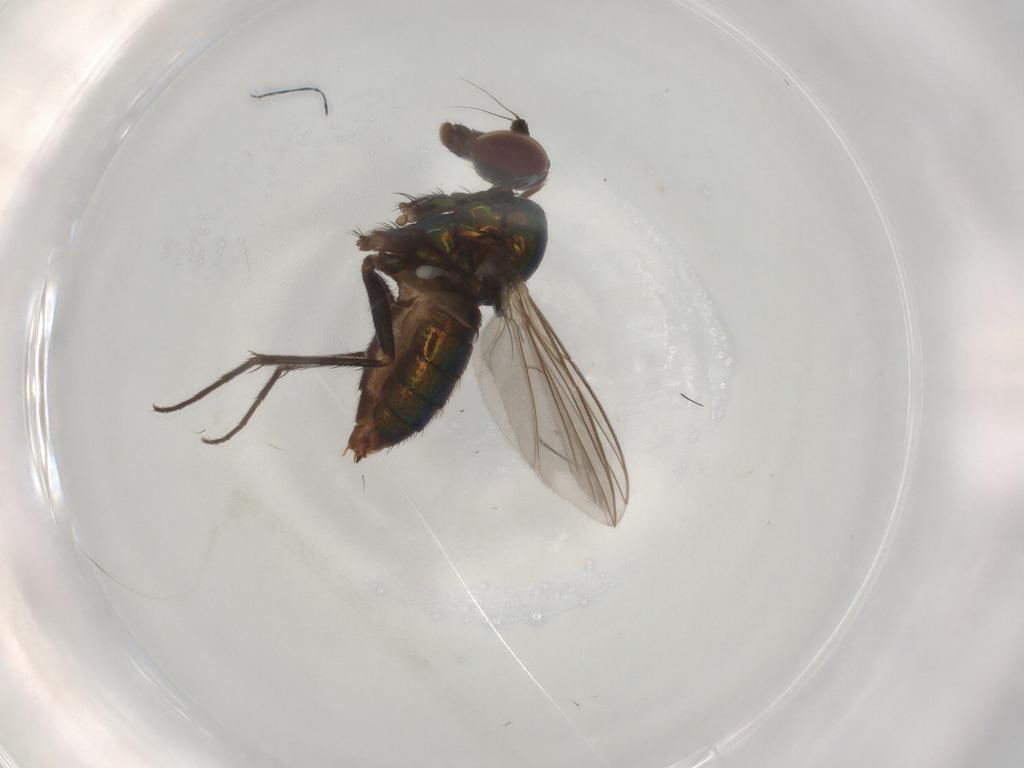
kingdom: Animalia
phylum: Arthropoda
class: Insecta
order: Diptera
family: Dolichopodidae
